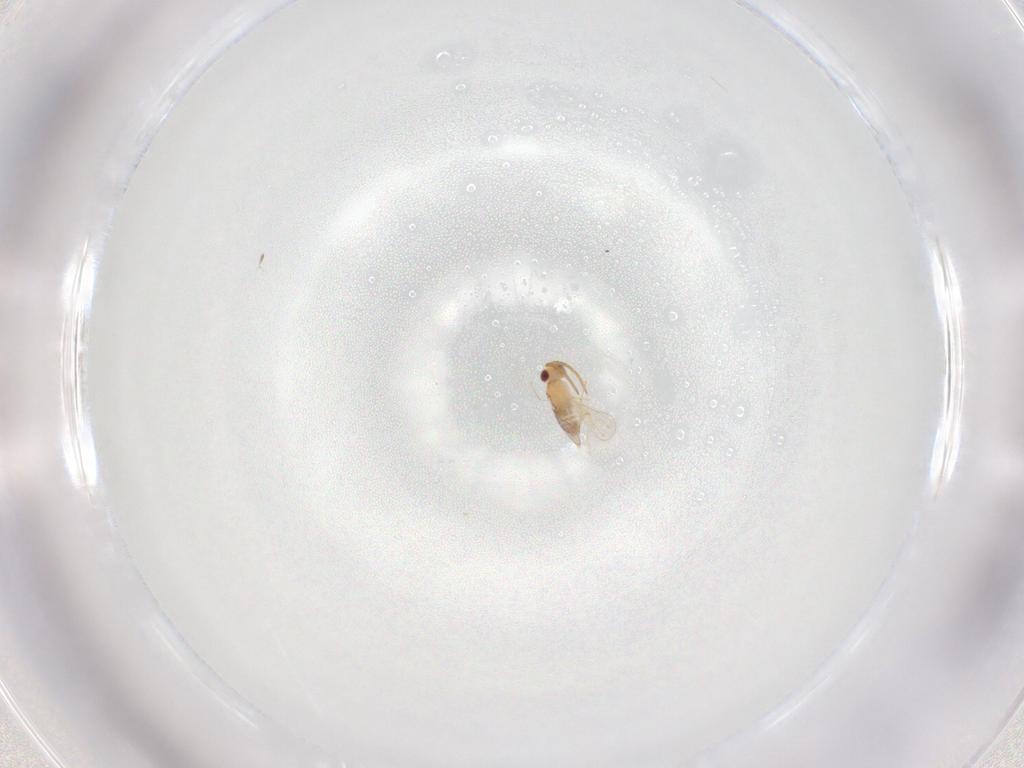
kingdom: Animalia
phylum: Arthropoda
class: Insecta
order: Hymenoptera
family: Aphelinidae
